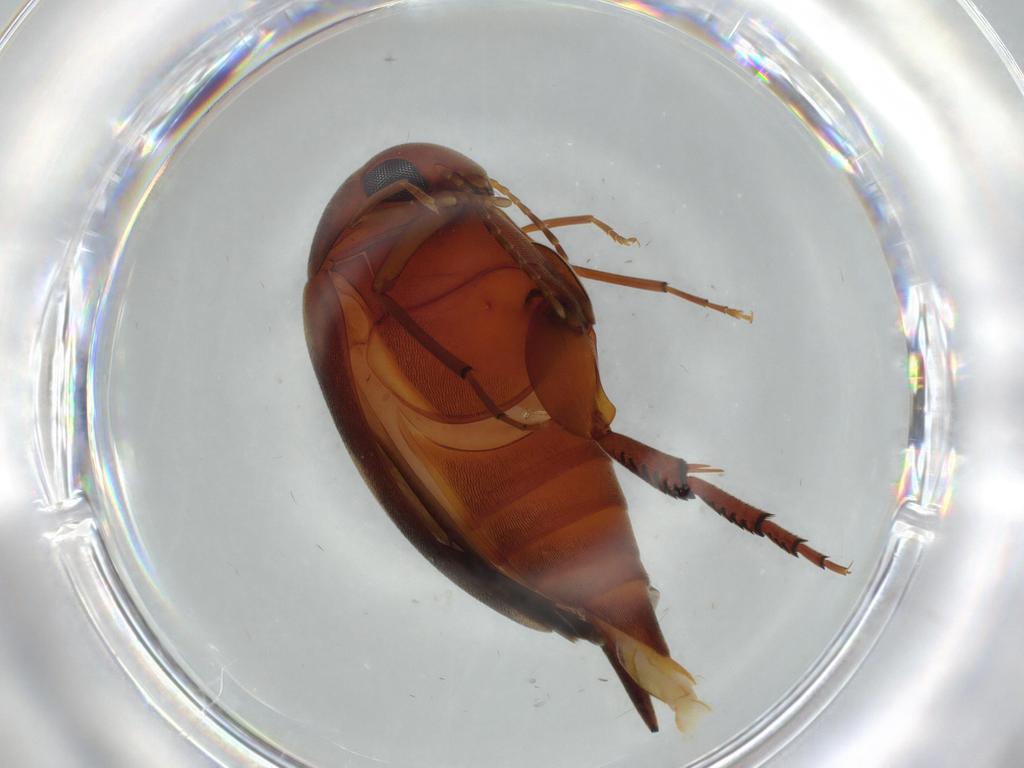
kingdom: Animalia
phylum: Arthropoda
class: Insecta
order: Coleoptera
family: Mordellidae
